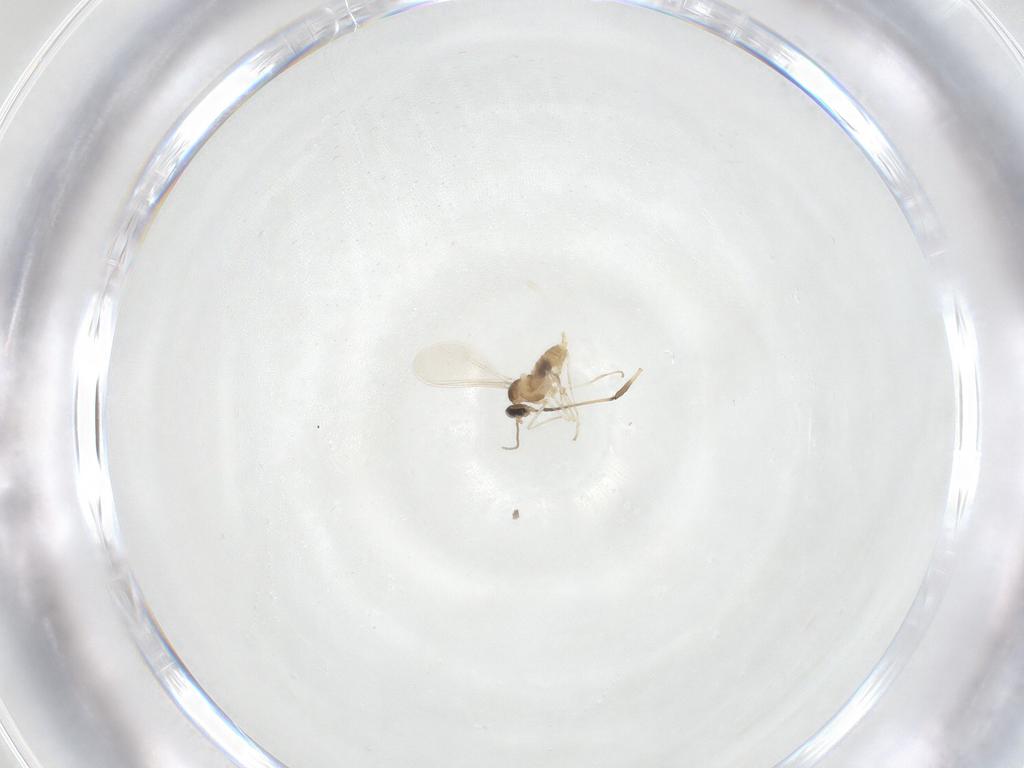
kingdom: Animalia
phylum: Arthropoda
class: Insecta
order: Diptera
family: Cecidomyiidae
